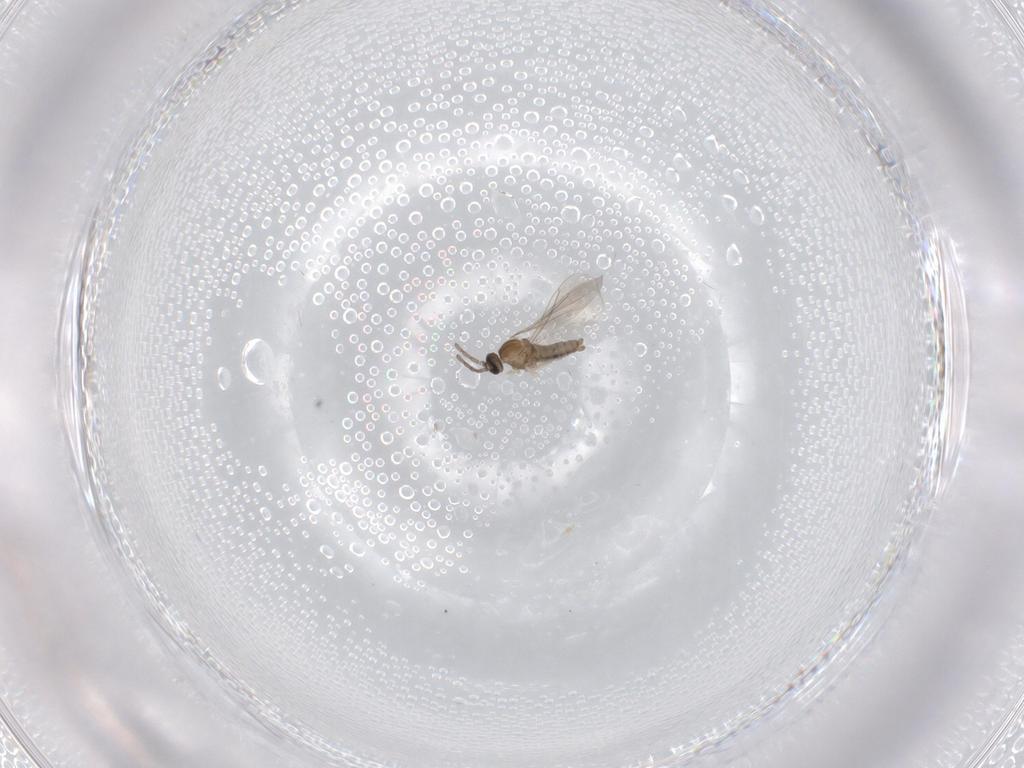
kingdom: Animalia
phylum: Arthropoda
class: Insecta
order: Diptera
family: Cecidomyiidae
